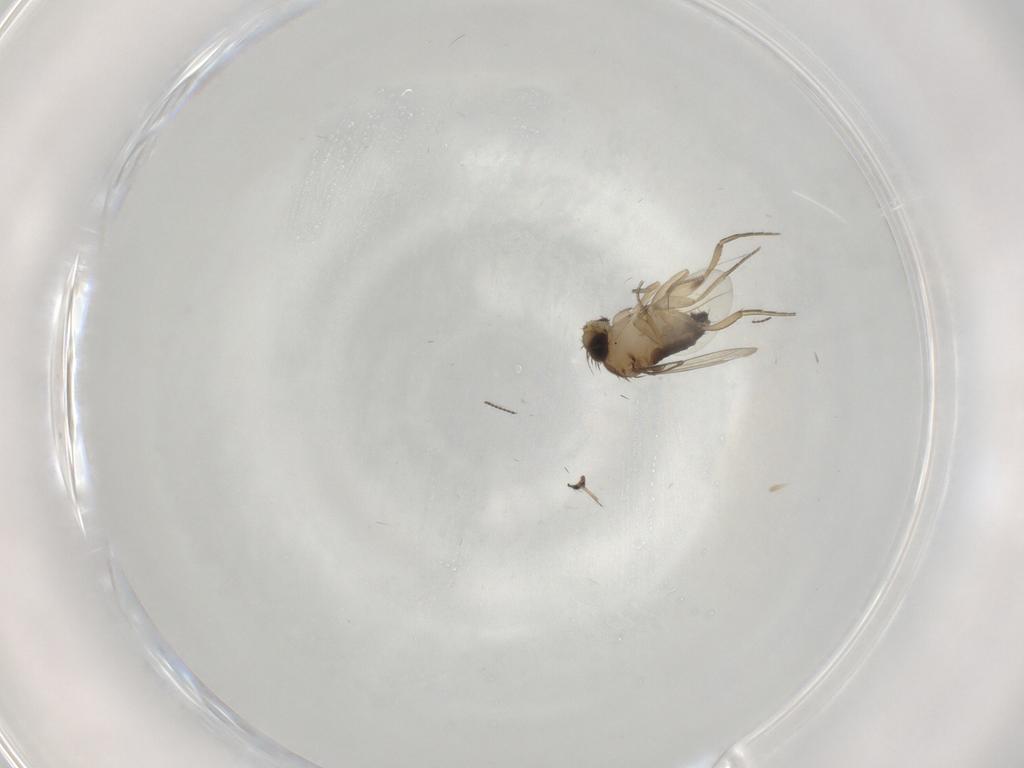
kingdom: Animalia
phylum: Arthropoda
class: Insecta
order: Diptera
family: Phoridae
